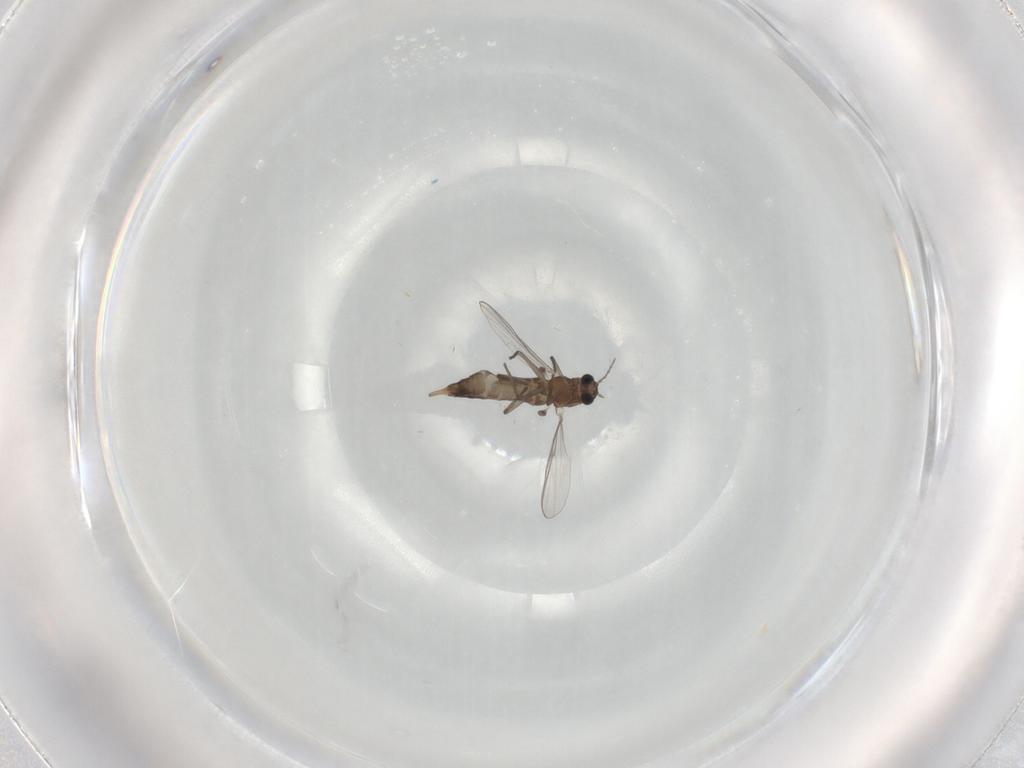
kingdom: Animalia
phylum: Arthropoda
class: Insecta
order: Diptera
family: Chironomidae
